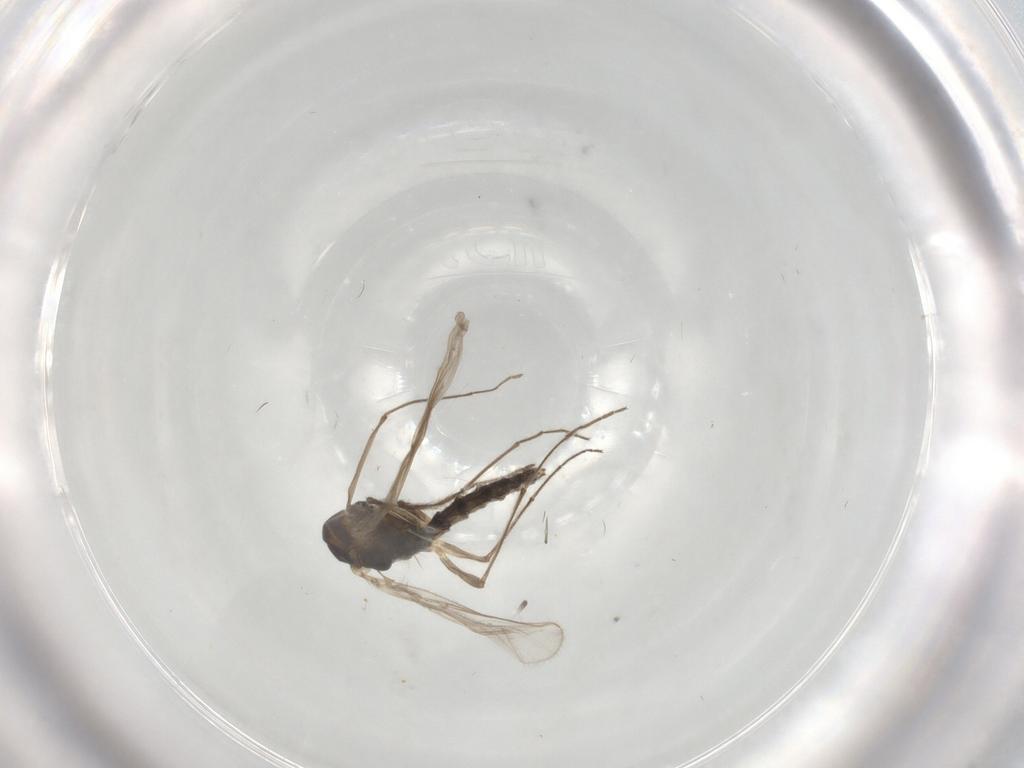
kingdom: Animalia
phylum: Arthropoda
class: Insecta
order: Diptera
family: Chironomidae
